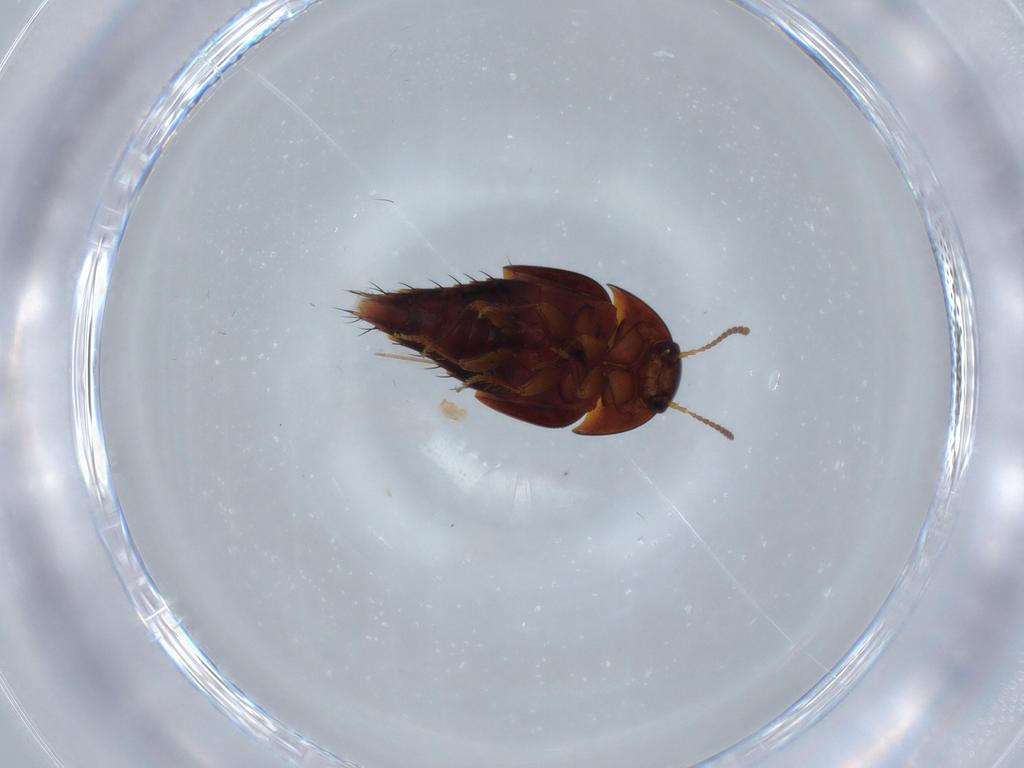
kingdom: Animalia
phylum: Arthropoda
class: Insecta
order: Coleoptera
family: Staphylinidae
